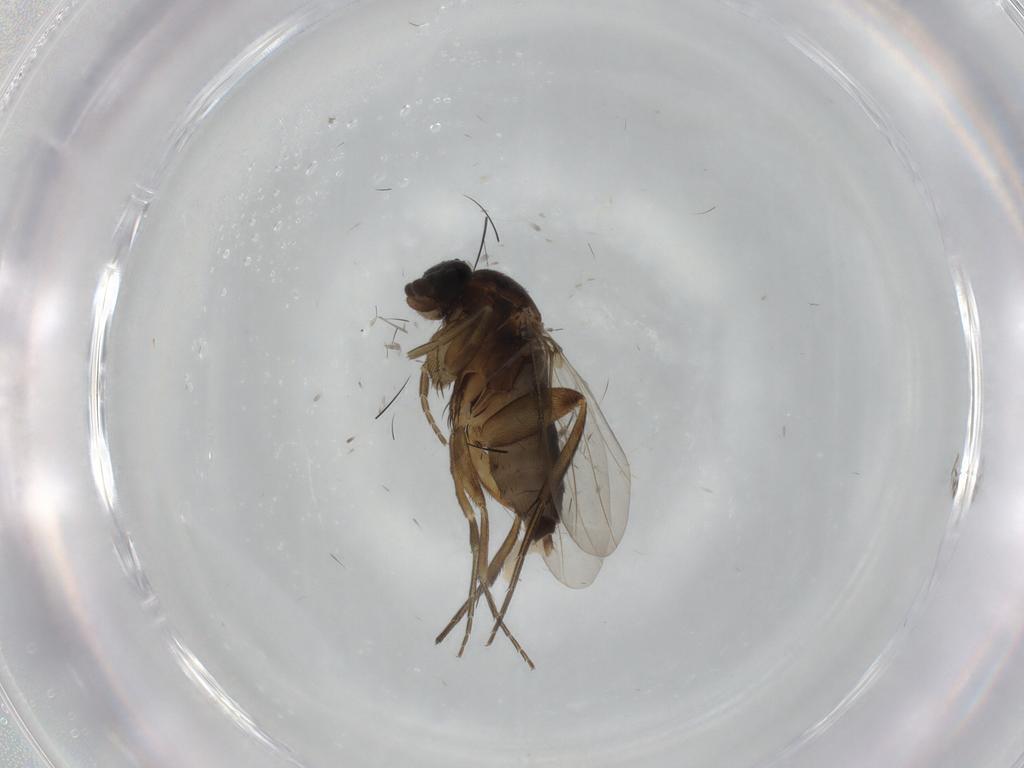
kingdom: Animalia
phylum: Arthropoda
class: Insecta
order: Diptera
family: Phoridae
